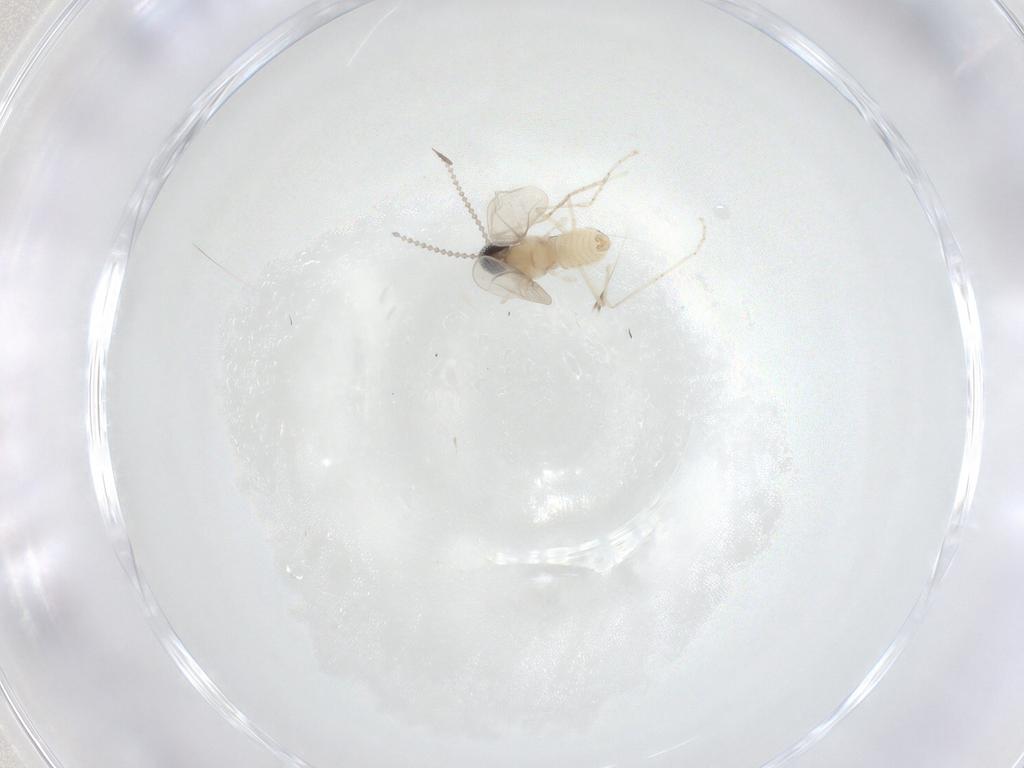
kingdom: Animalia
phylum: Arthropoda
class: Insecta
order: Diptera
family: Cecidomyiidae
